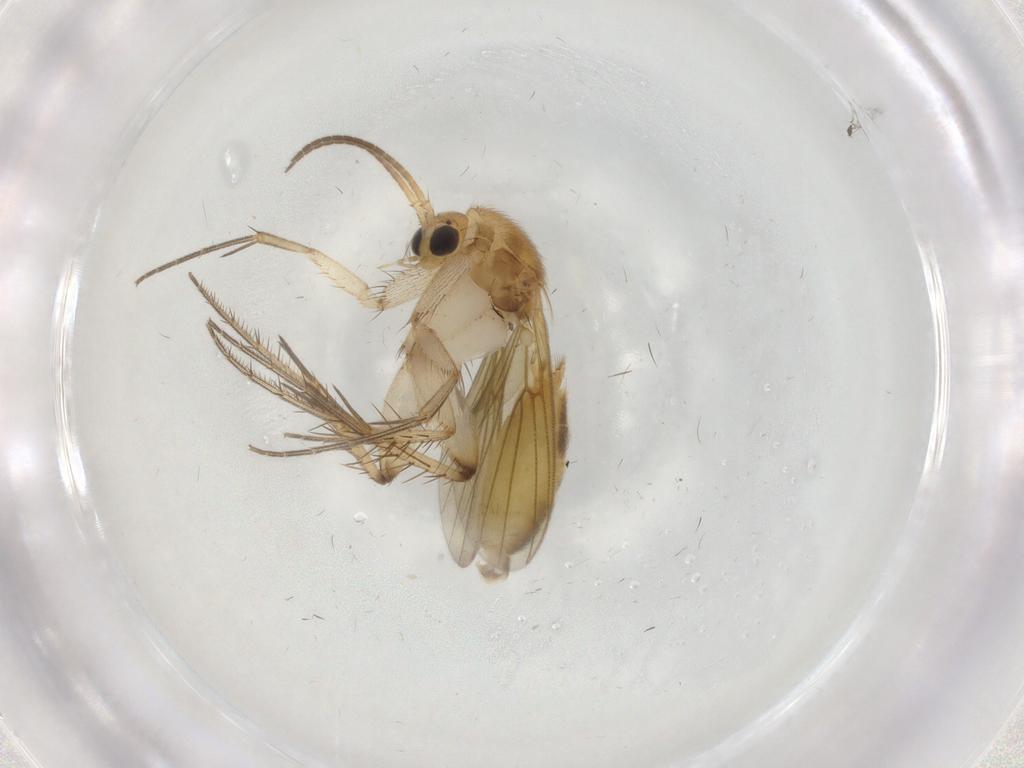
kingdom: Animalia
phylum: Arthropoda
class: Insecta
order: Diptera
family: Mycetophilidae
